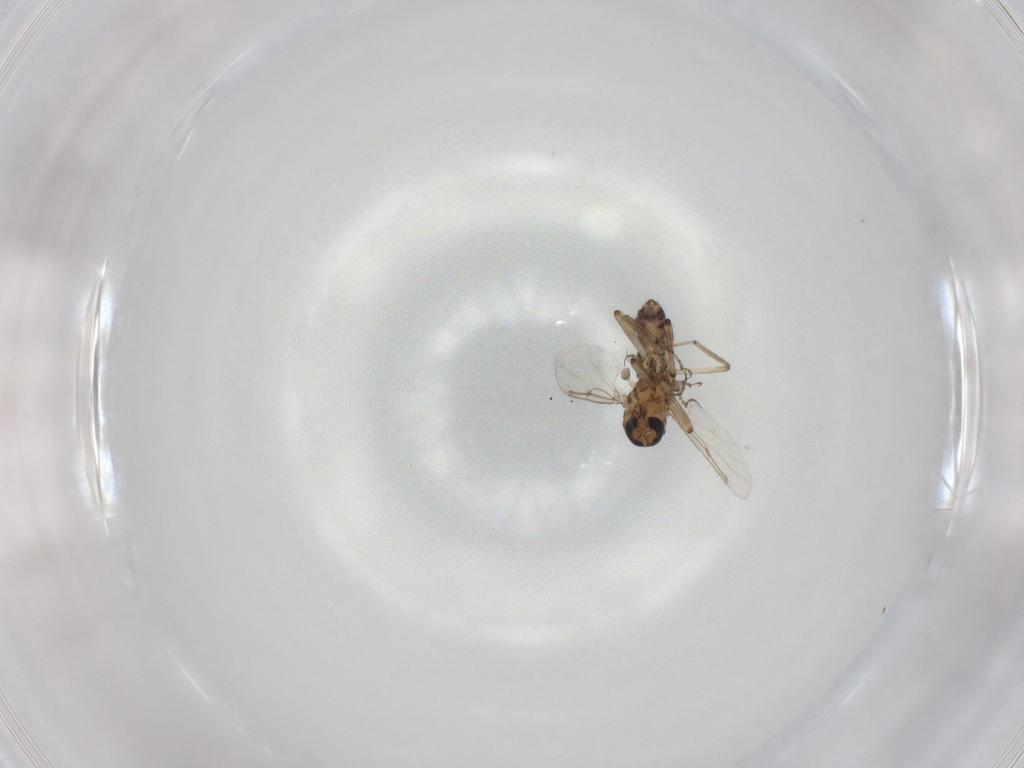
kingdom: Animalia
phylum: Arthropoda
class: Insecta
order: Diptera
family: Ceratopogonidae
